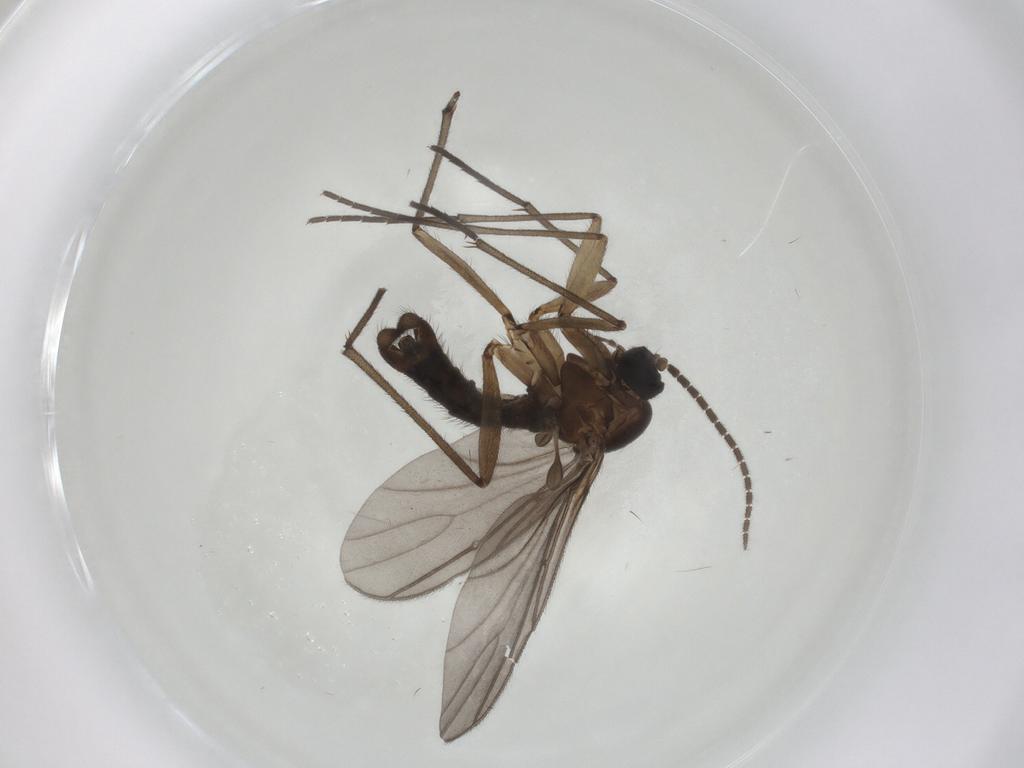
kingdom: Animalia
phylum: Arthropoda
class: Insecta
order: Diptera
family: Sciaridae
